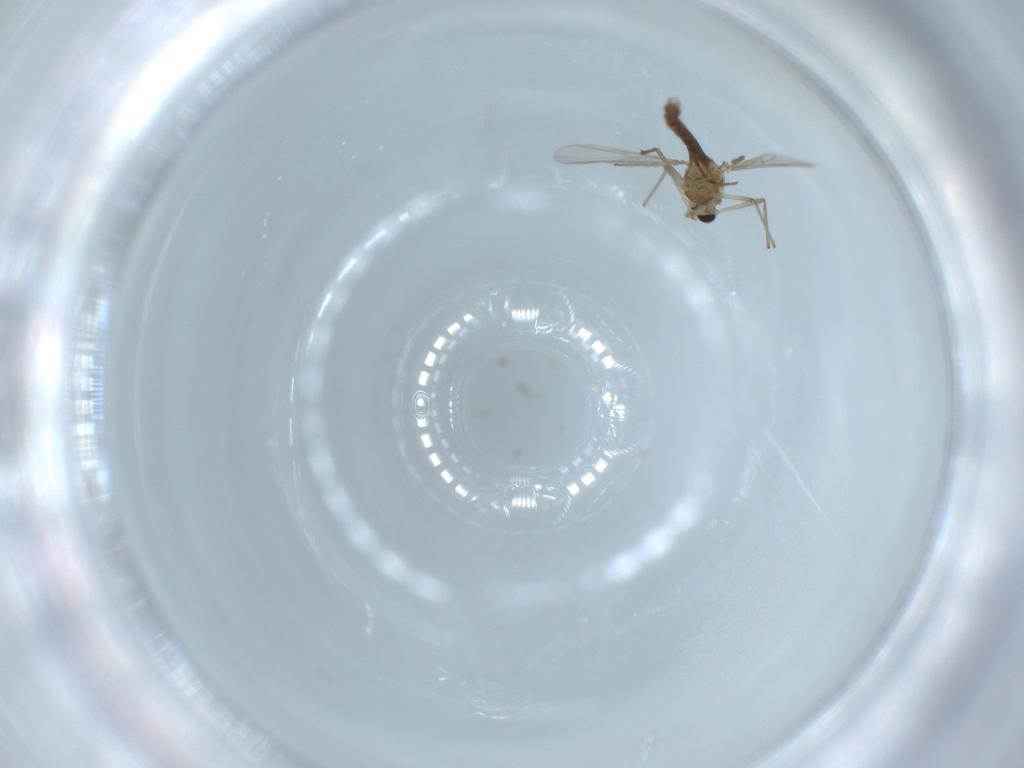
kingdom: Animalia
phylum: Arthropoda
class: Insecta
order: Diptera
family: Chironomidae
